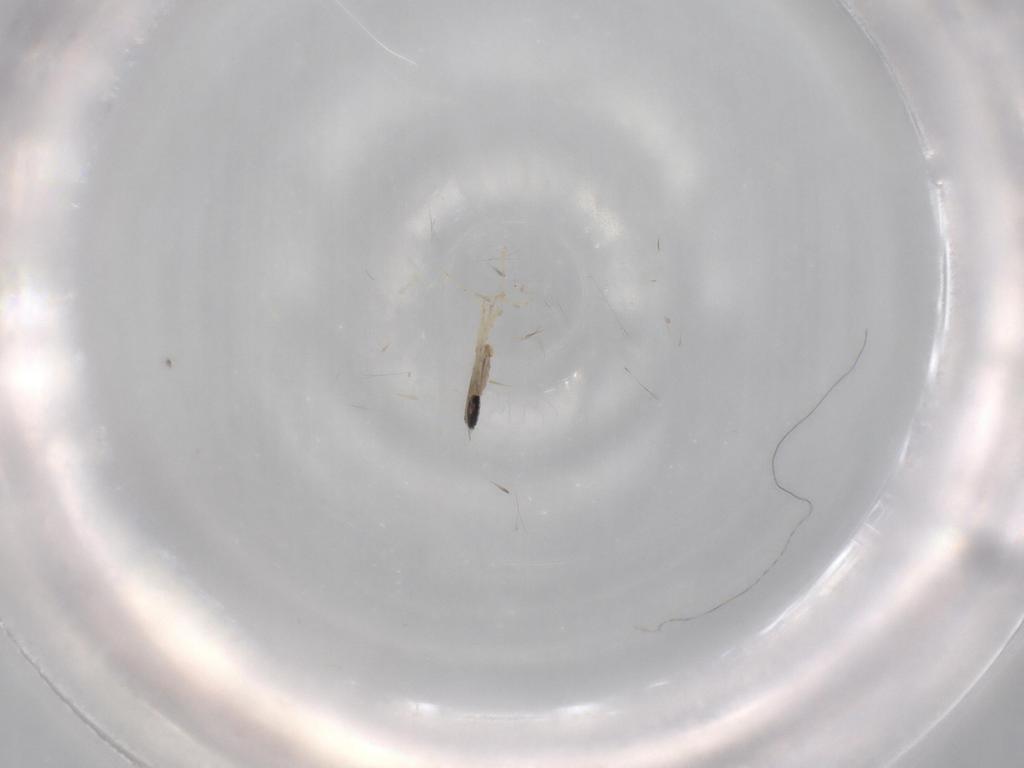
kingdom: Animalia
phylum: Arthropoda
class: Insecta
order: Diptera
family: Cecidomyiidae
